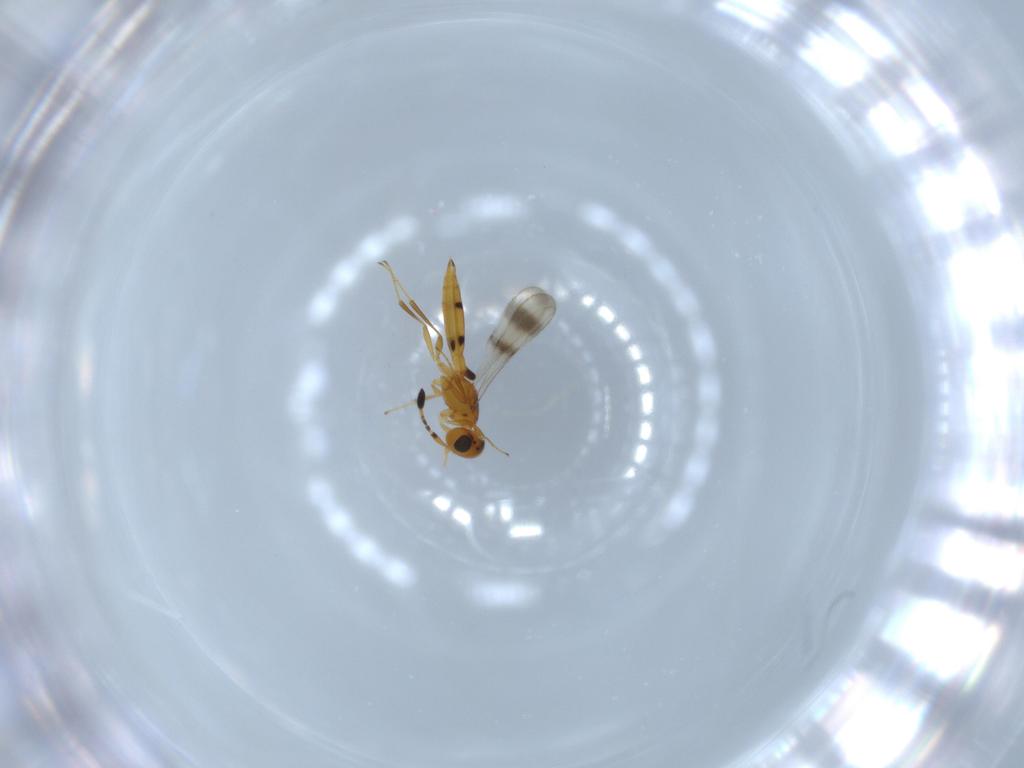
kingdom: Animalia
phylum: Arthropoda
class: Insecta
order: Hymenoptera
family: Scelionidae
